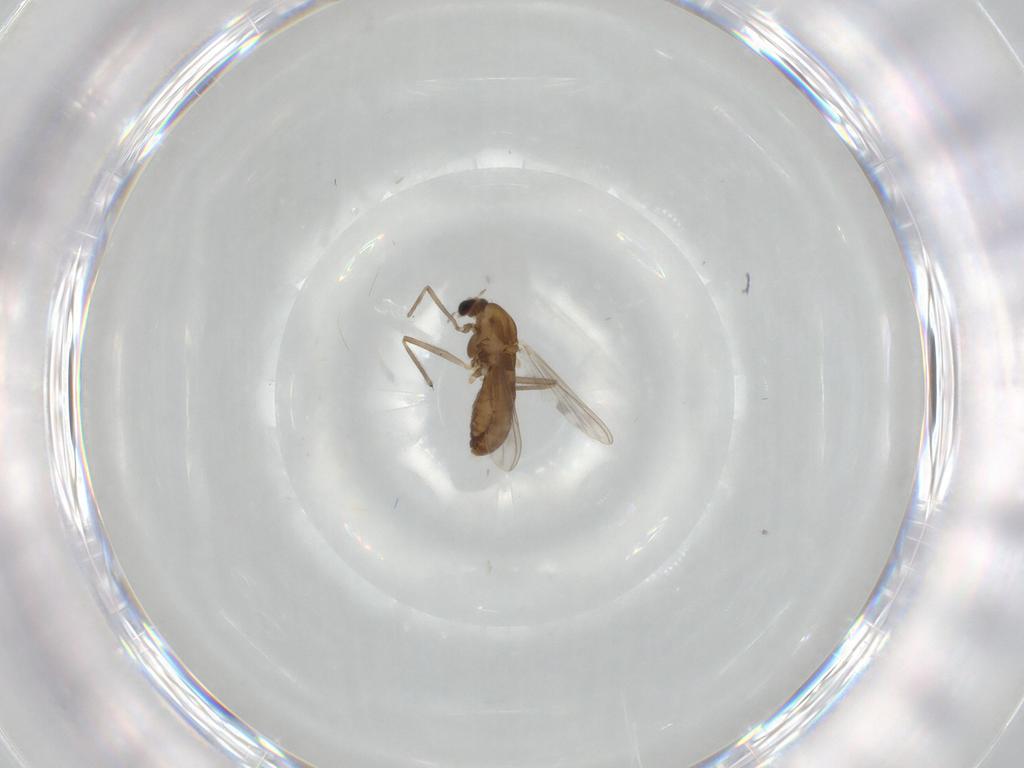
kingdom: Animalia
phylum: Arthropoda
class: Insecta
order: Diptera
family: Chironomidae
